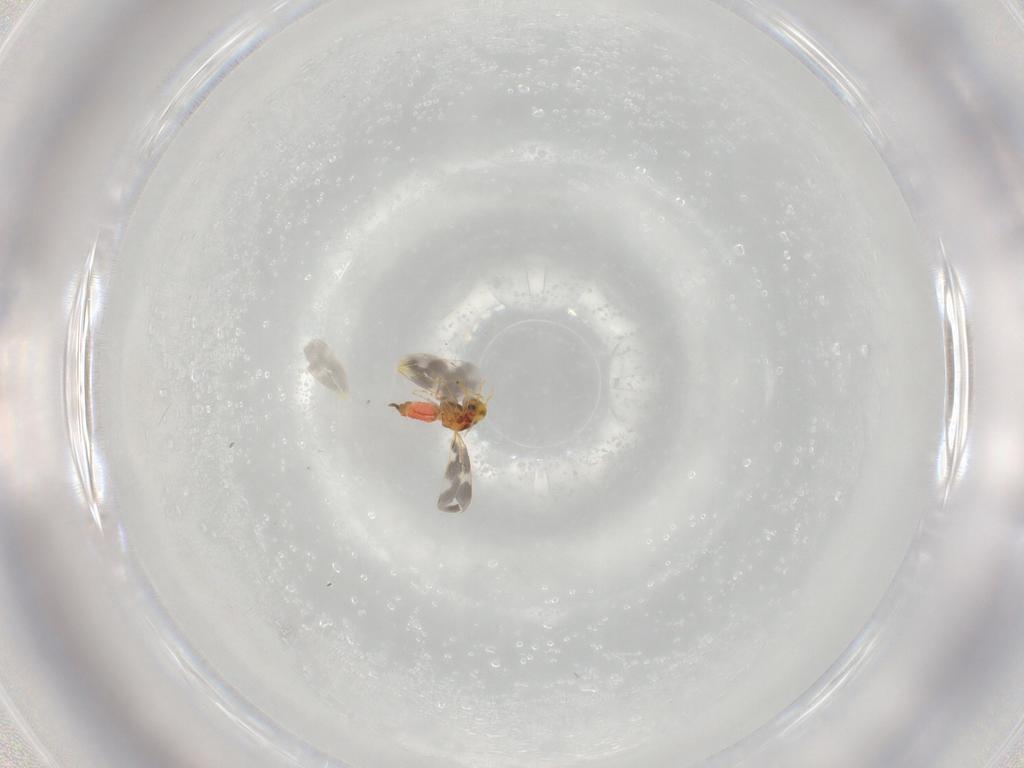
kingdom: Animalia
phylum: Arthropoda
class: Insecta
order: Hemiptera
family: Aleyrodidae
